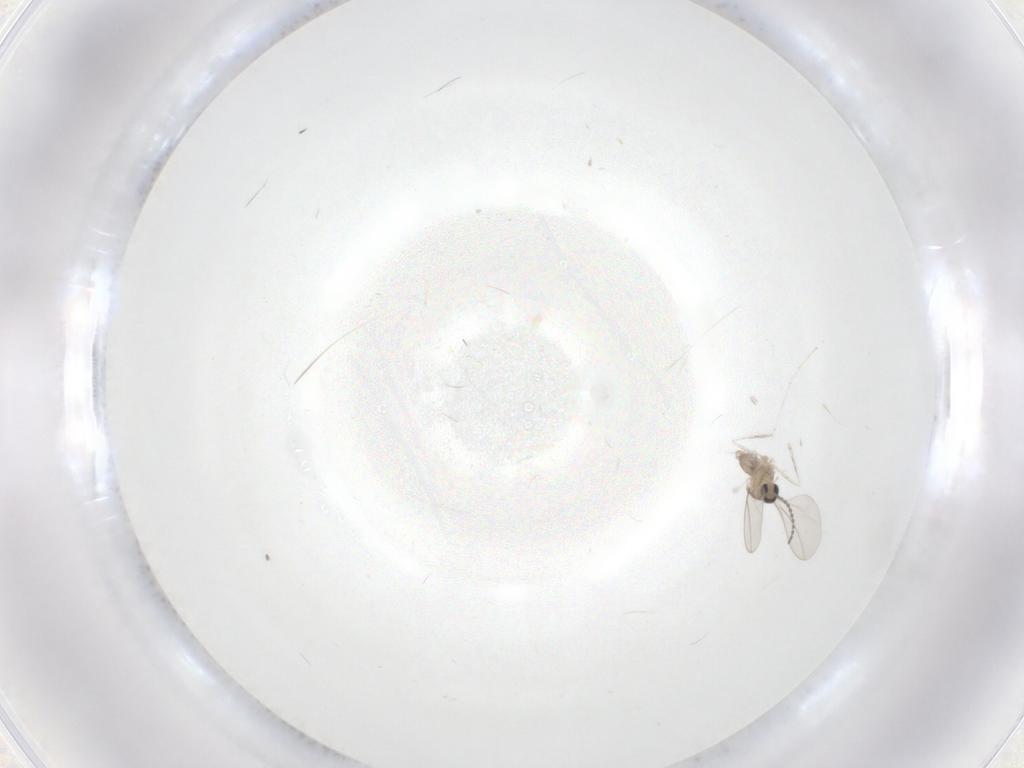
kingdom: Animalia
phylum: Arthropoda
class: Insecta
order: Diptera
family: Cecidomyiidae
